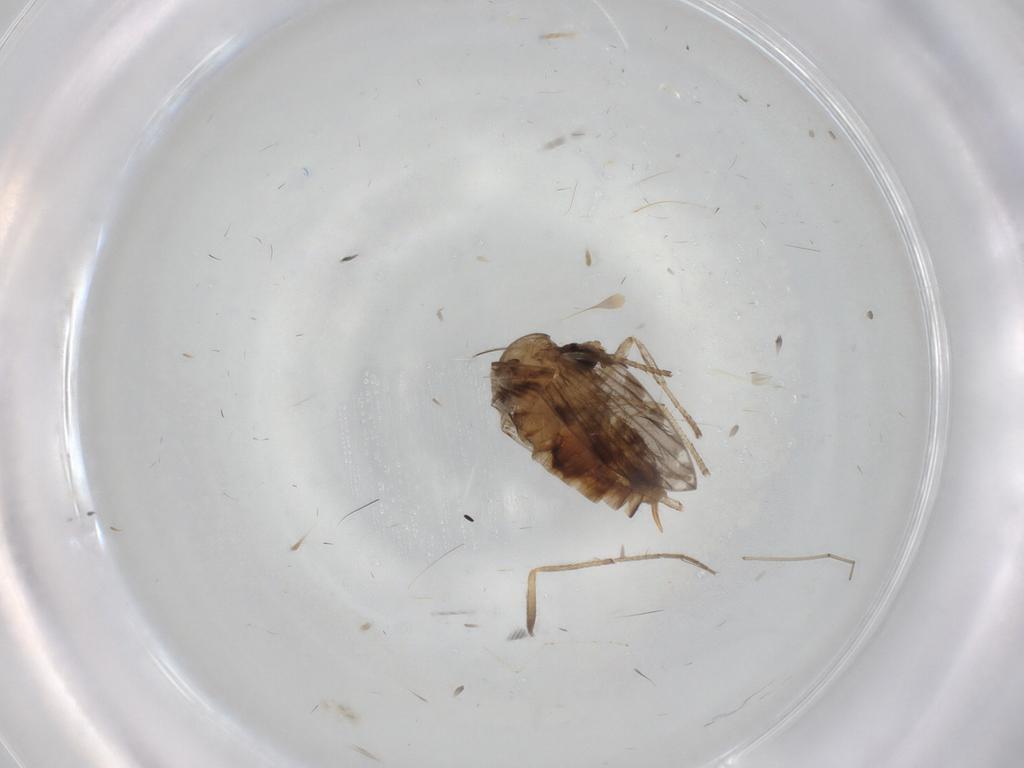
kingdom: Animalia
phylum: Arthropoda
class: Insecta
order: Diptera
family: Psychodidae
